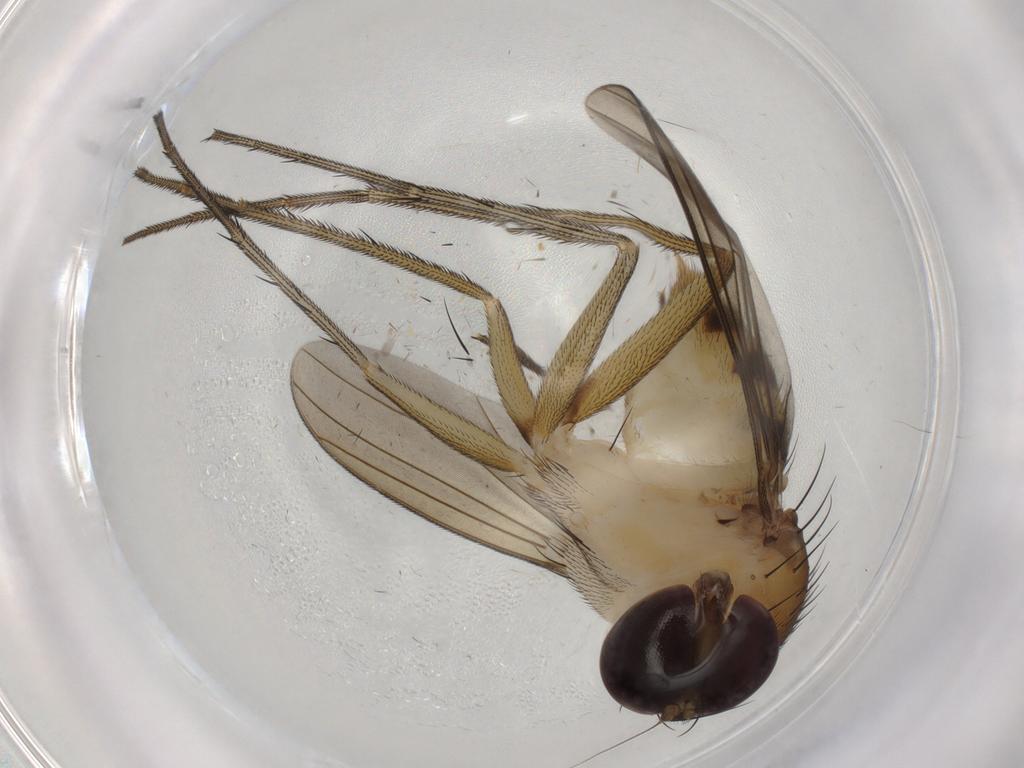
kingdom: Animalia
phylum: Arthropoda
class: Insecta
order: Diptera
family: Dolichopodidae
